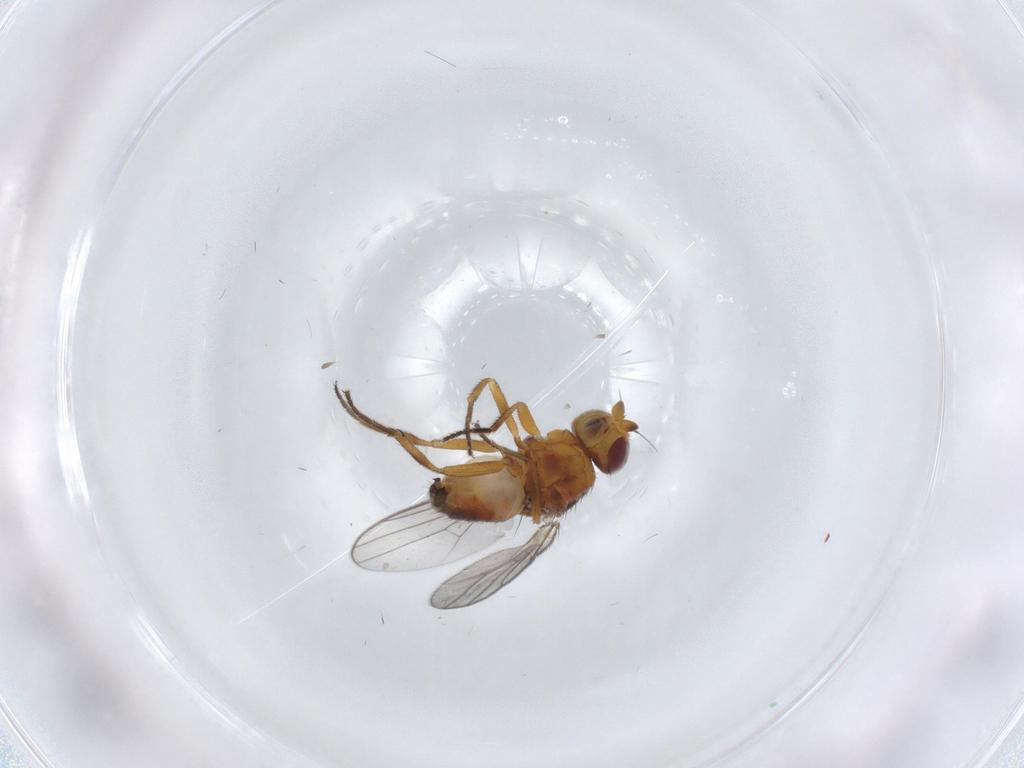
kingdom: Animalia
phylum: Arthropoda
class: Insecta
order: Diptera
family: Chloropidae
